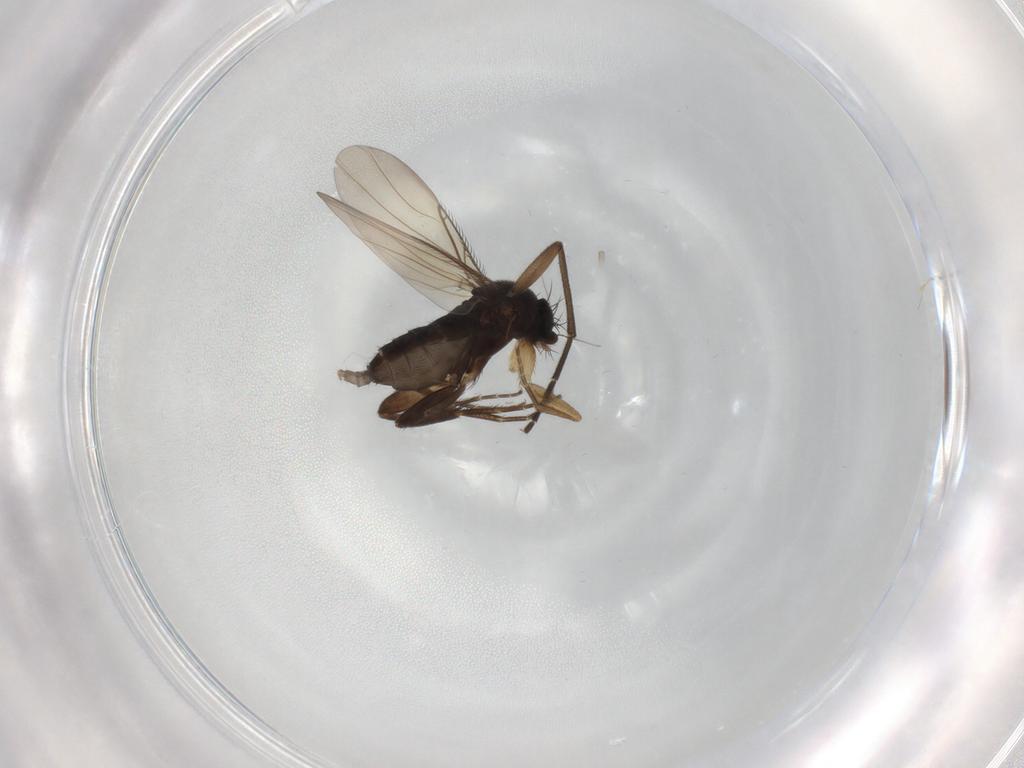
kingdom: Animalia
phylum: Arthropoda
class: Insecta
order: Diptera
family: Phoridae
